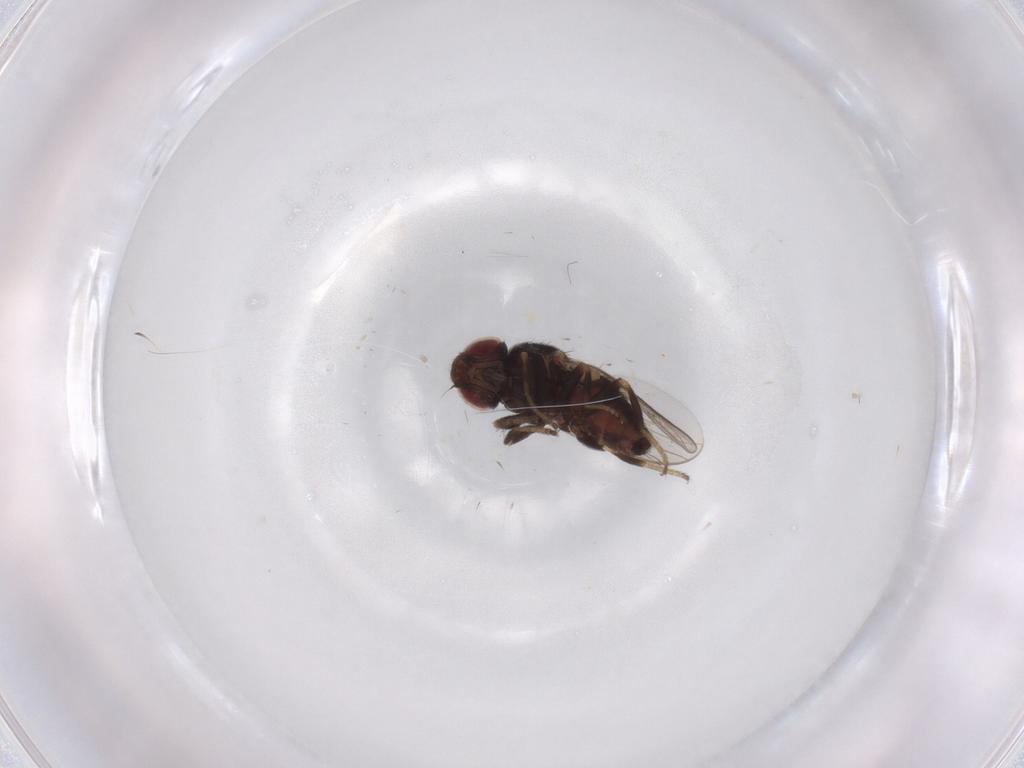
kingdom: Animalia
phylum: Arthropoda
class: Insecta
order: Diptera
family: Chloropidae
